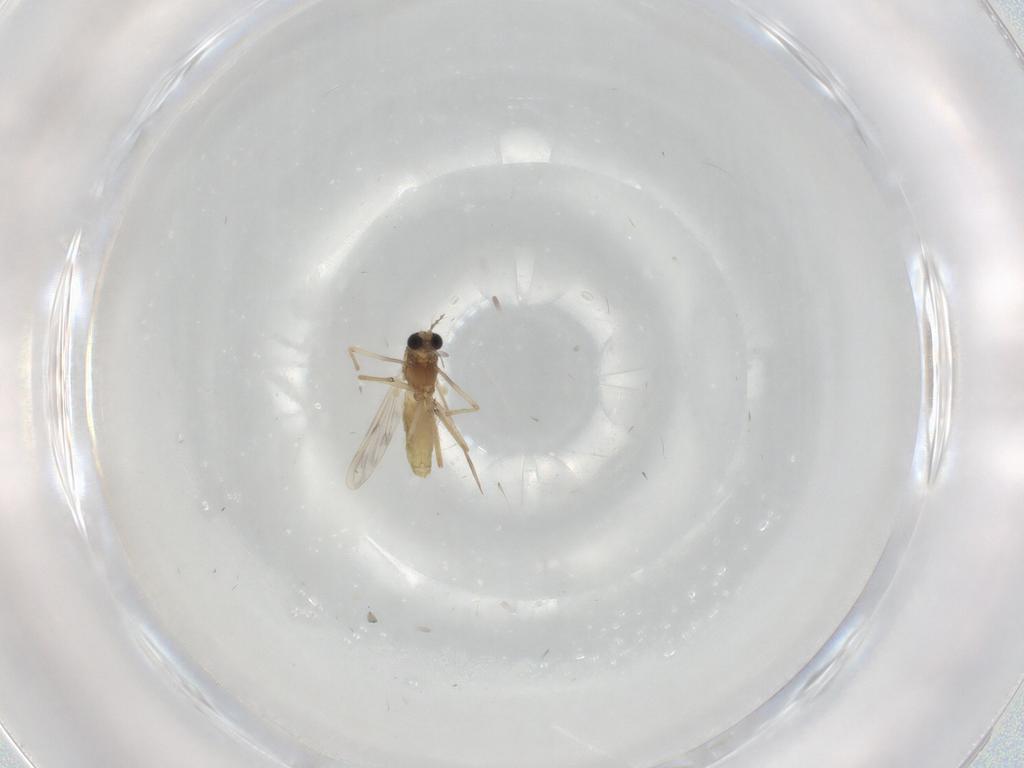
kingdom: Animalia
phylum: Arthropoda
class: Insecta
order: Diptera
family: Chironomidae
